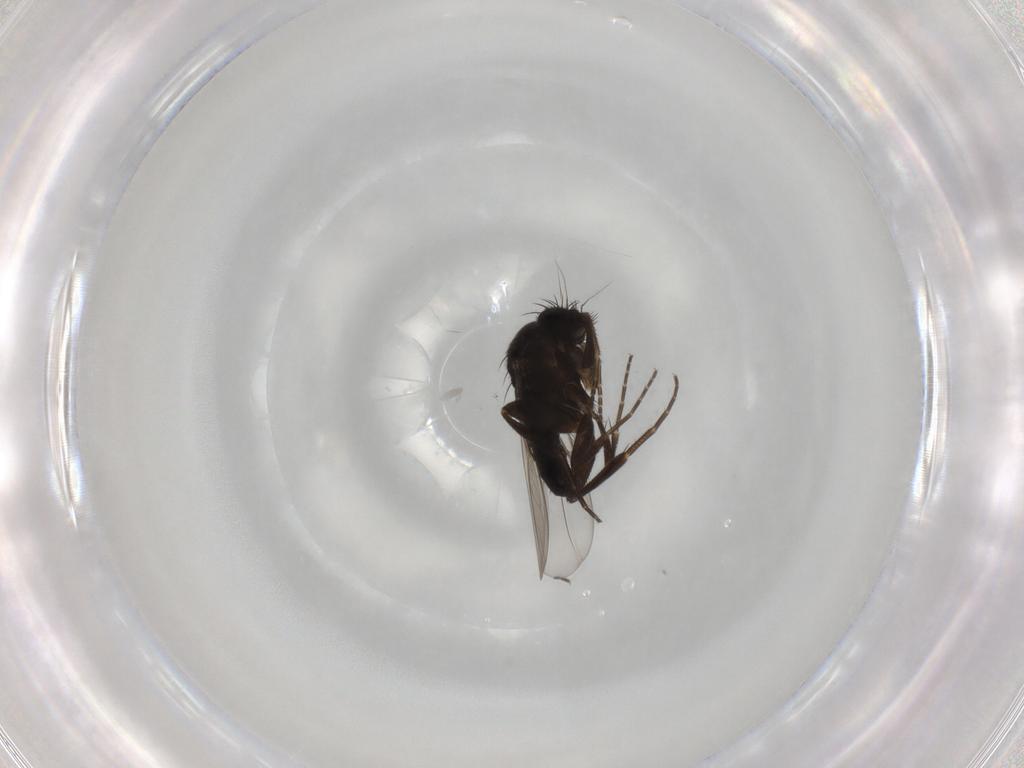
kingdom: Animalia
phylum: Arthropoda
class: Insecta
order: Diptera
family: Phoridae
